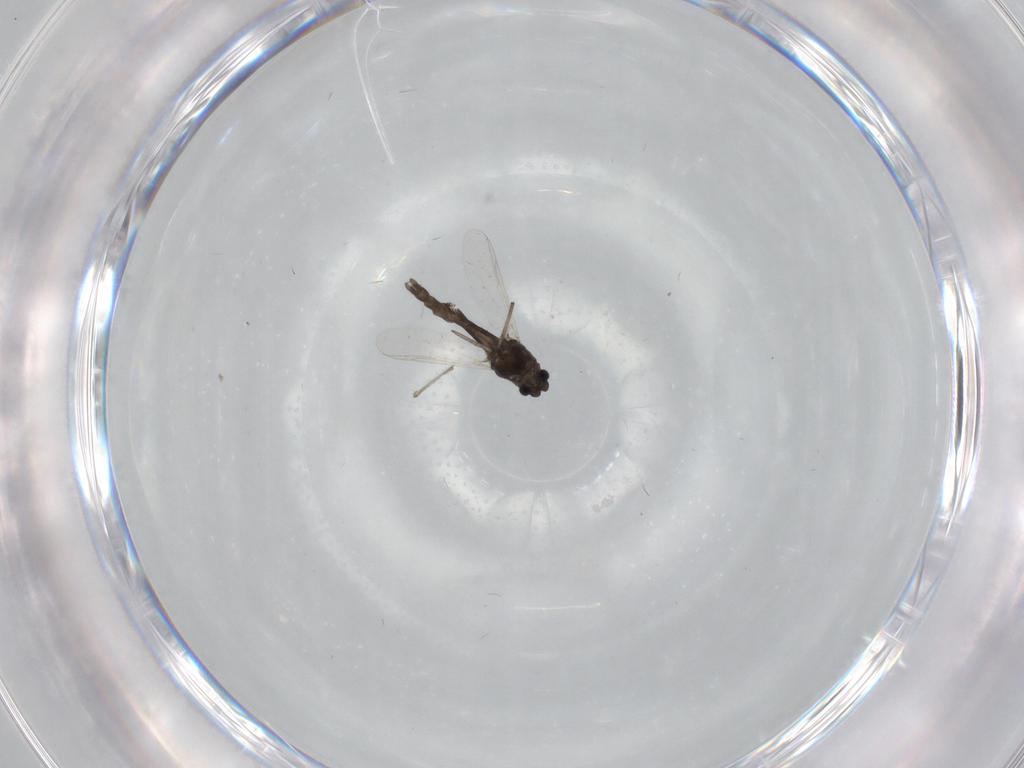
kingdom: Animalia
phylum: Arthropoda
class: Insecta
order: Diptera
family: Chironomidae
